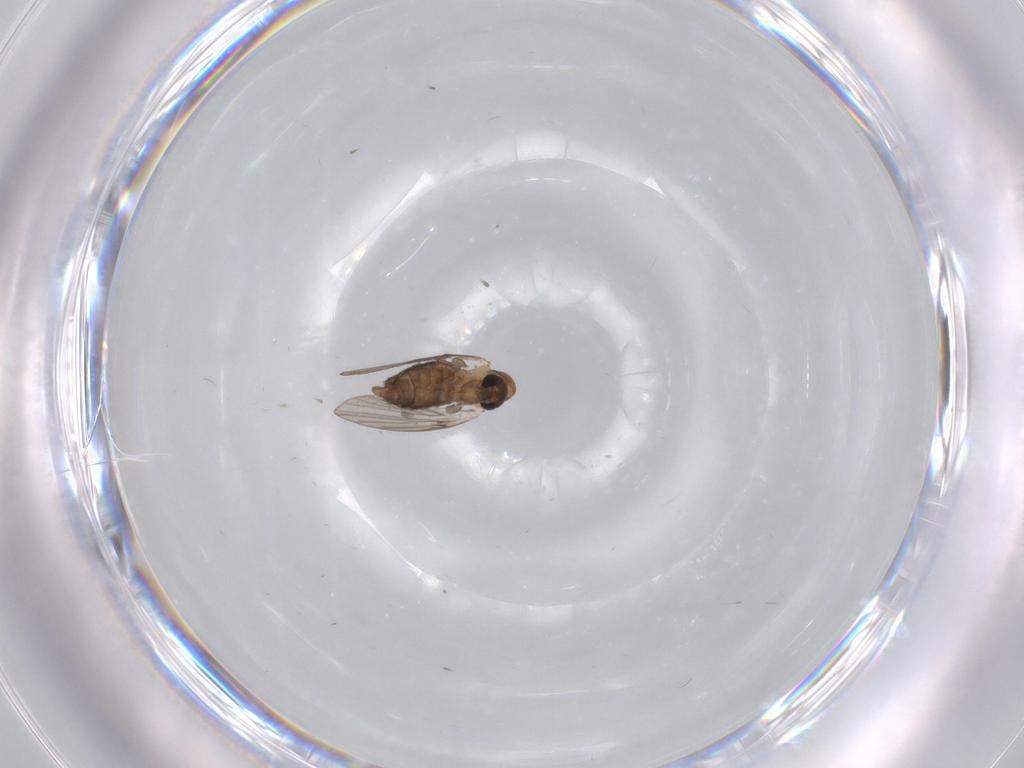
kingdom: Animalia
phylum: Arthropoda
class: Insecta
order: Diptera
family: Psychodidae
